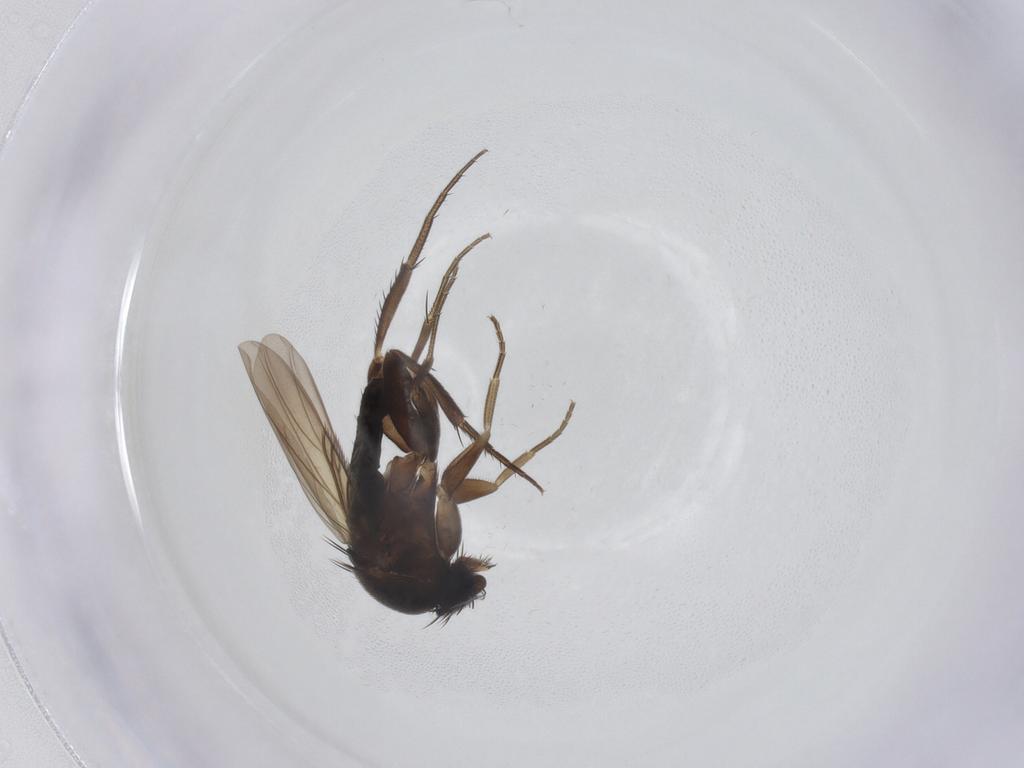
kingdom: Animalia
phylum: Arthropoda
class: Insecta
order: Diptera
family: Phoridae
